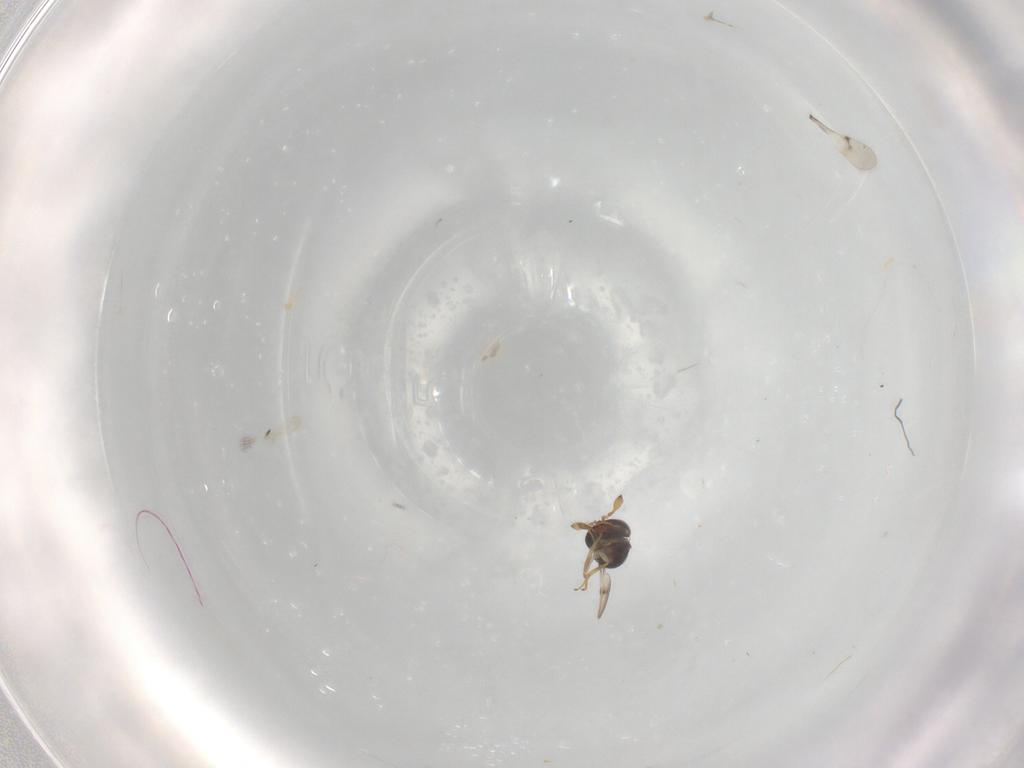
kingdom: Animalia
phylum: Arthropoda
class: Insecta
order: Hymenoptera
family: Scelionidae
